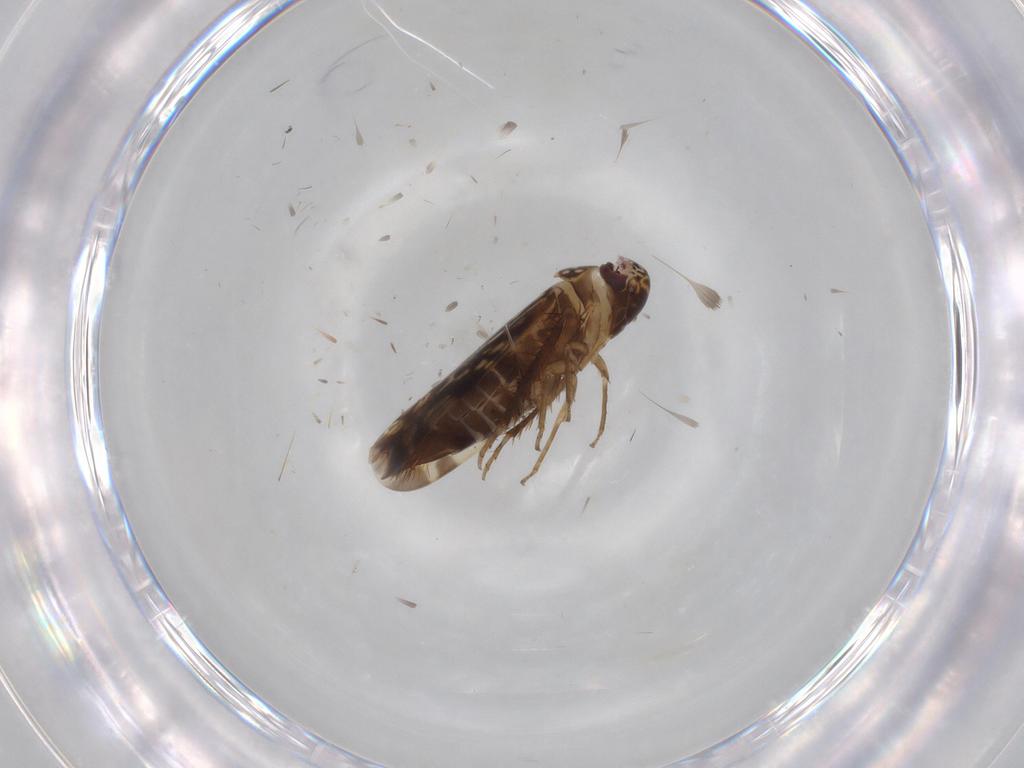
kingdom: Animalia
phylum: Arthropoda
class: Insecta
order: Hemiptera
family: Cicadellidae
